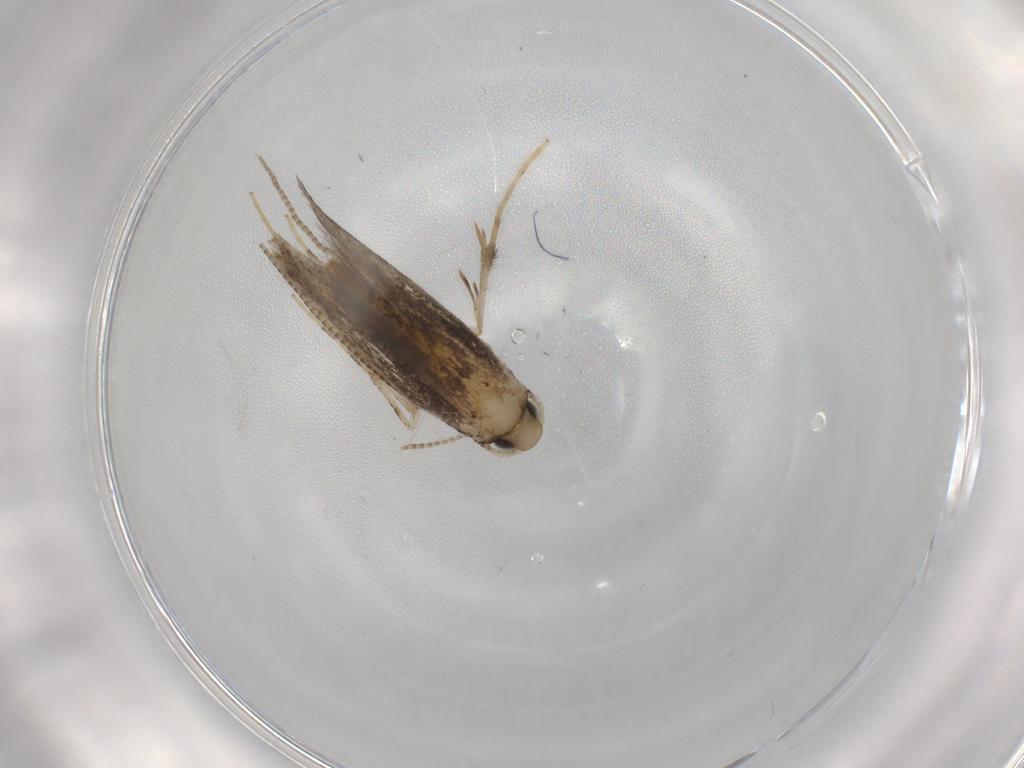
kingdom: Animalia
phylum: Arthropoda
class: Insecta
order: Lepidoptera
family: Gracillariidae
